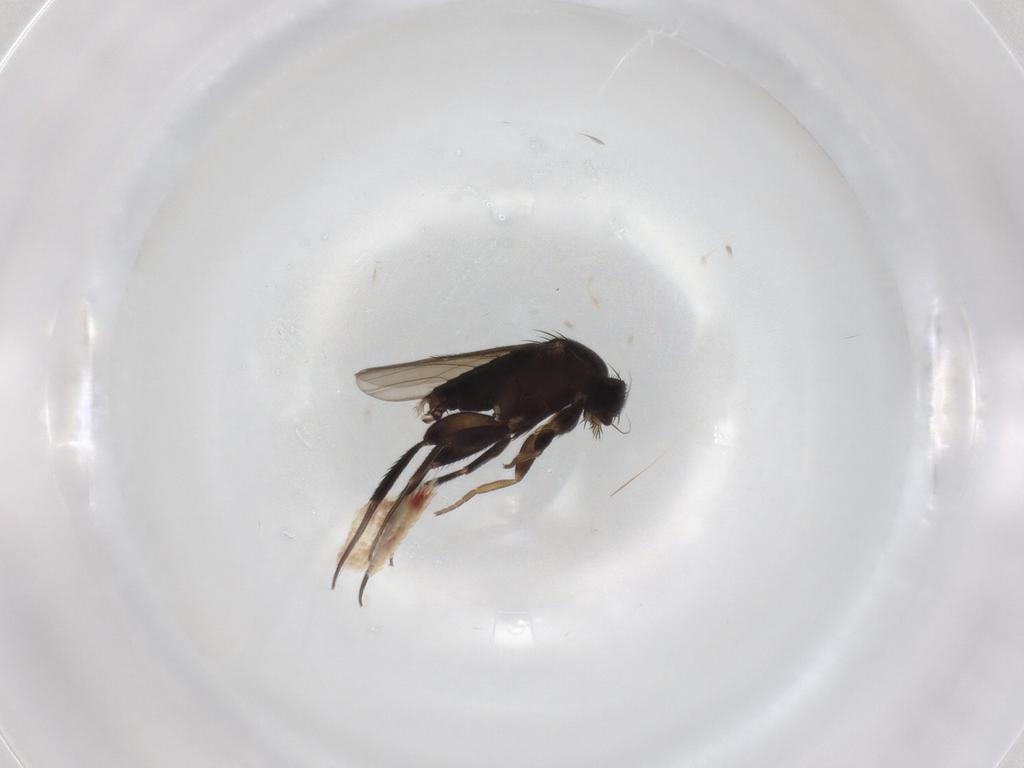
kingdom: Animalia
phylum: Arthropoda
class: Insecta
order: Diptera
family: Phoridae
